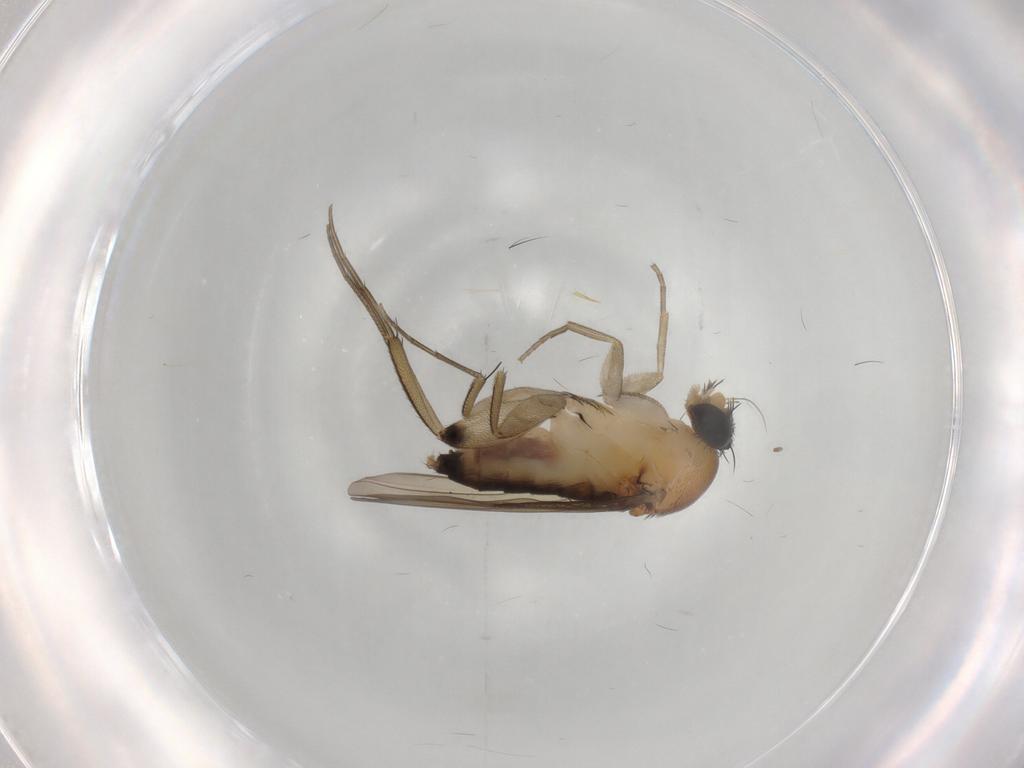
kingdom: Animalia
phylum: Arthropoda
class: Insecta
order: Diptera
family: Phoridae
